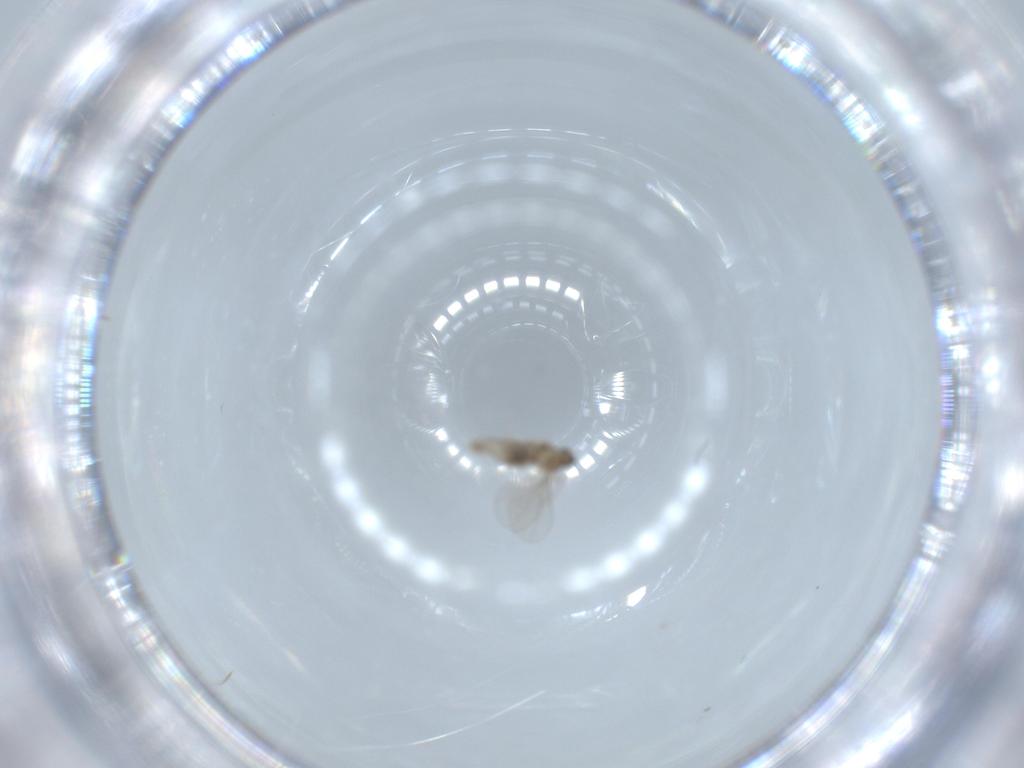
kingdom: Animalia
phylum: Arthropoda
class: Insecta
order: Diptera
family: Cecidomyiidae
